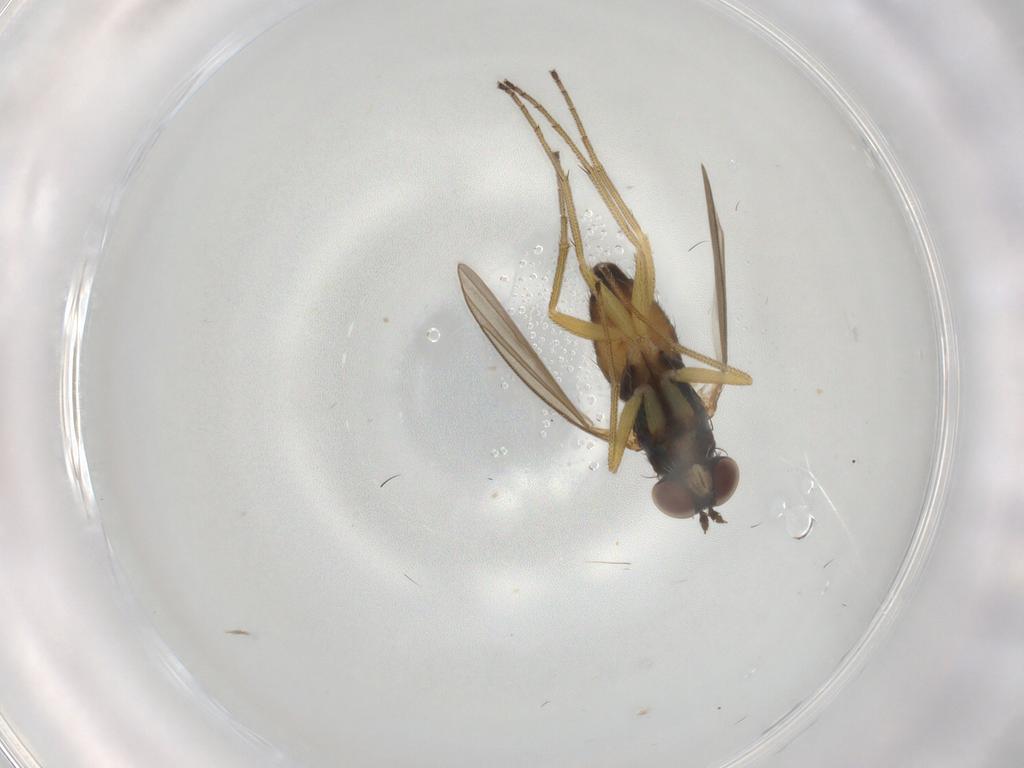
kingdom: Animalia
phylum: Arthropoda
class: Insecta
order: Diptera
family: Dolichopodidae
